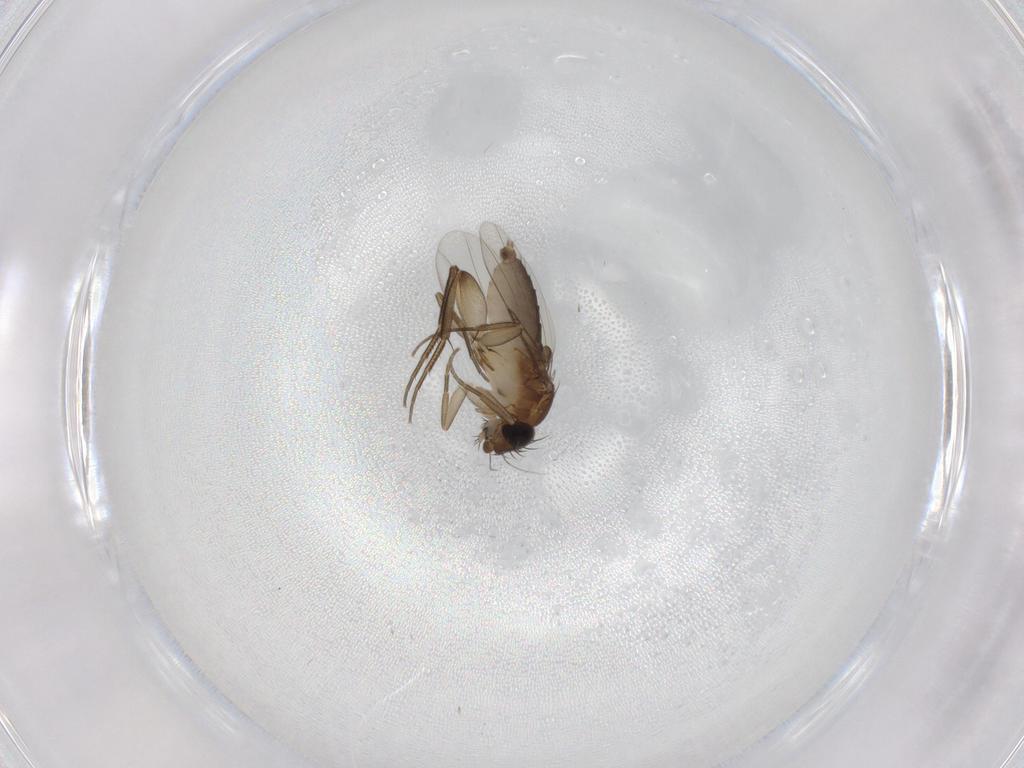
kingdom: Animalia
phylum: Arthropoda
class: Insecta
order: Diptera
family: Phoridae
